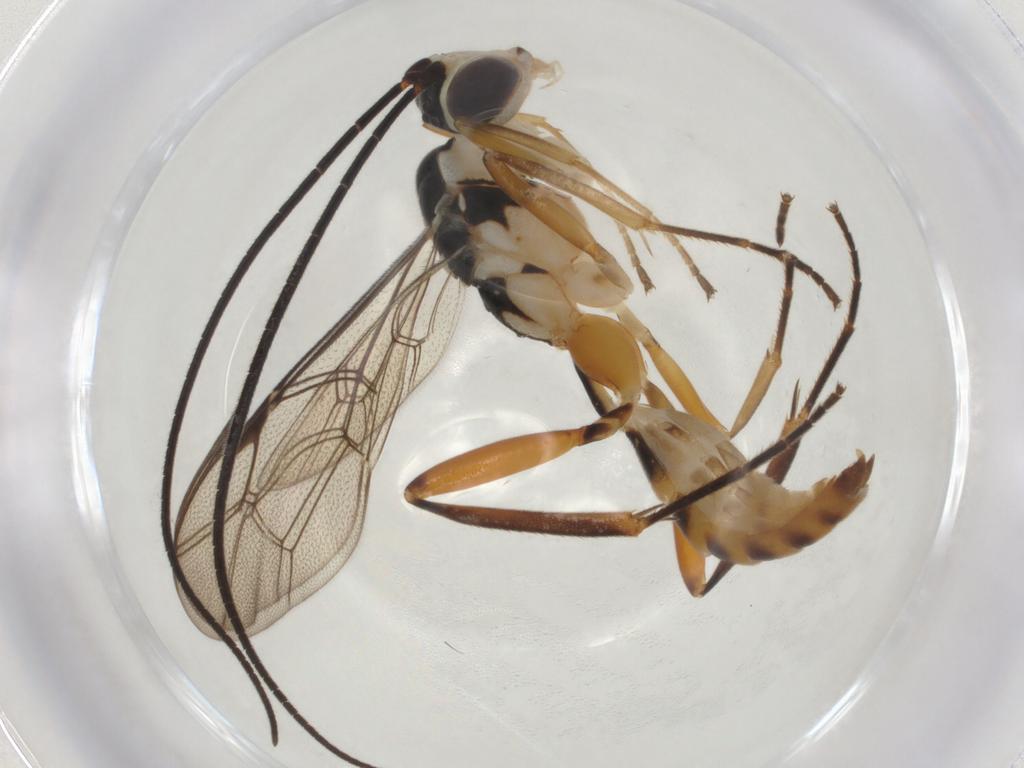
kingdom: Animalia
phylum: Arthropoda
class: Insecta
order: Hymenoptera
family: Ichneumonidae
